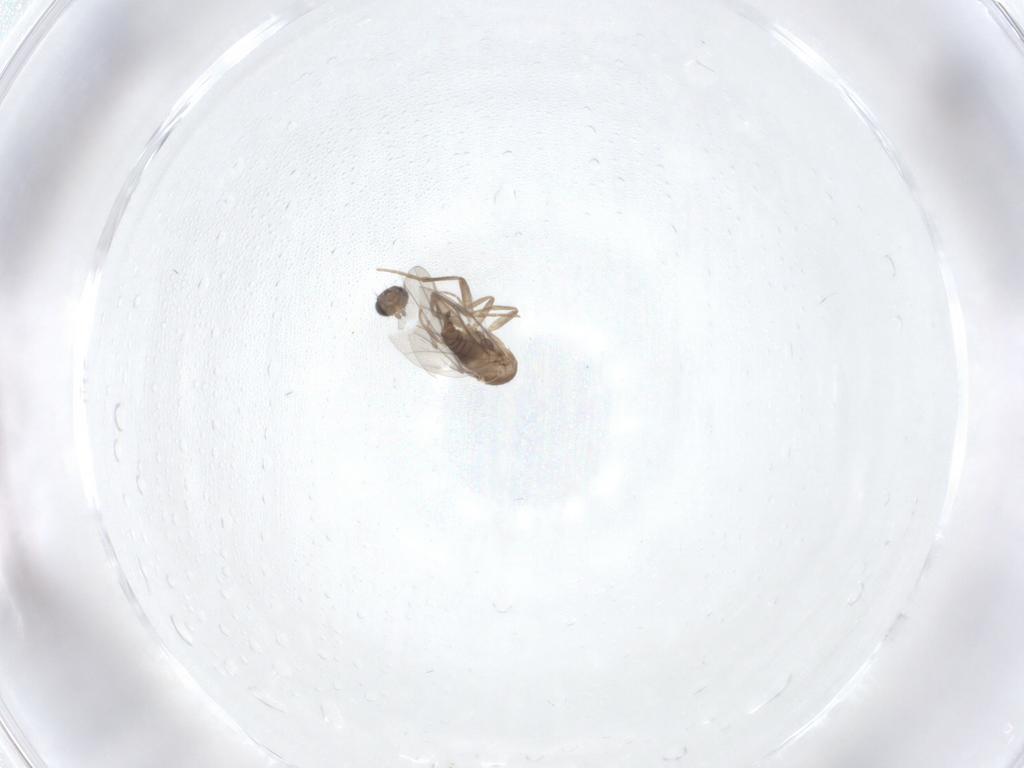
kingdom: Animalia
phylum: Arthropoda
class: Insecta
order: Diptera
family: Ceratopogonidae
